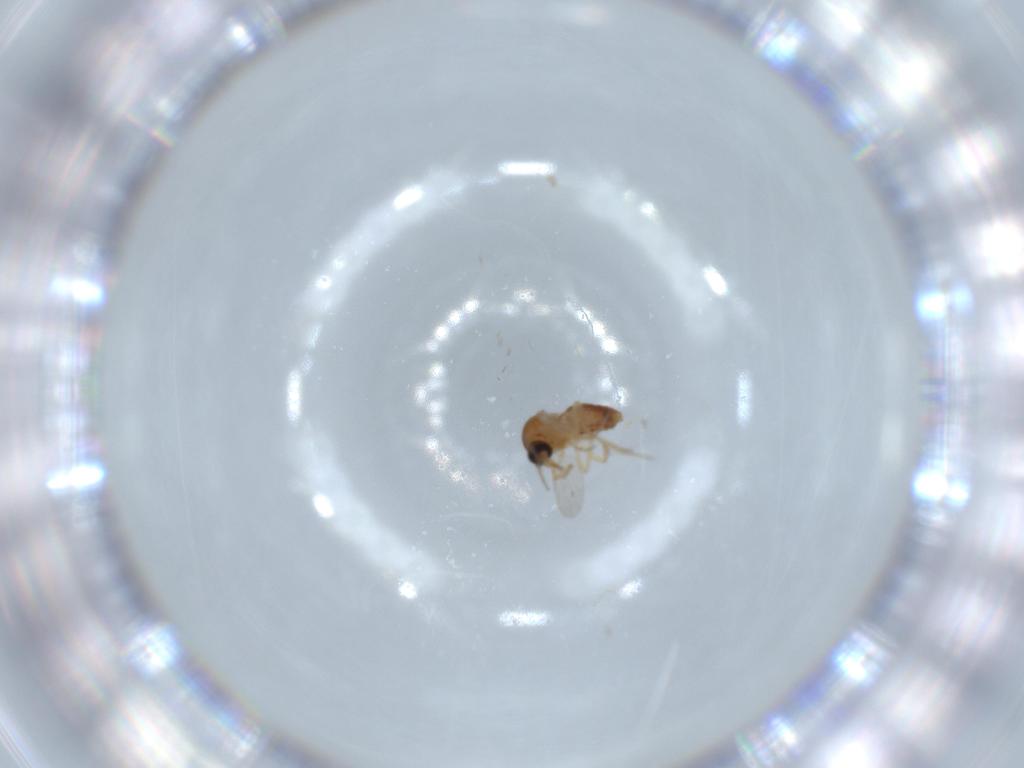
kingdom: Animalia
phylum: Arthropoda
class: Insecta
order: Diptera
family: Ceratopogonidae
